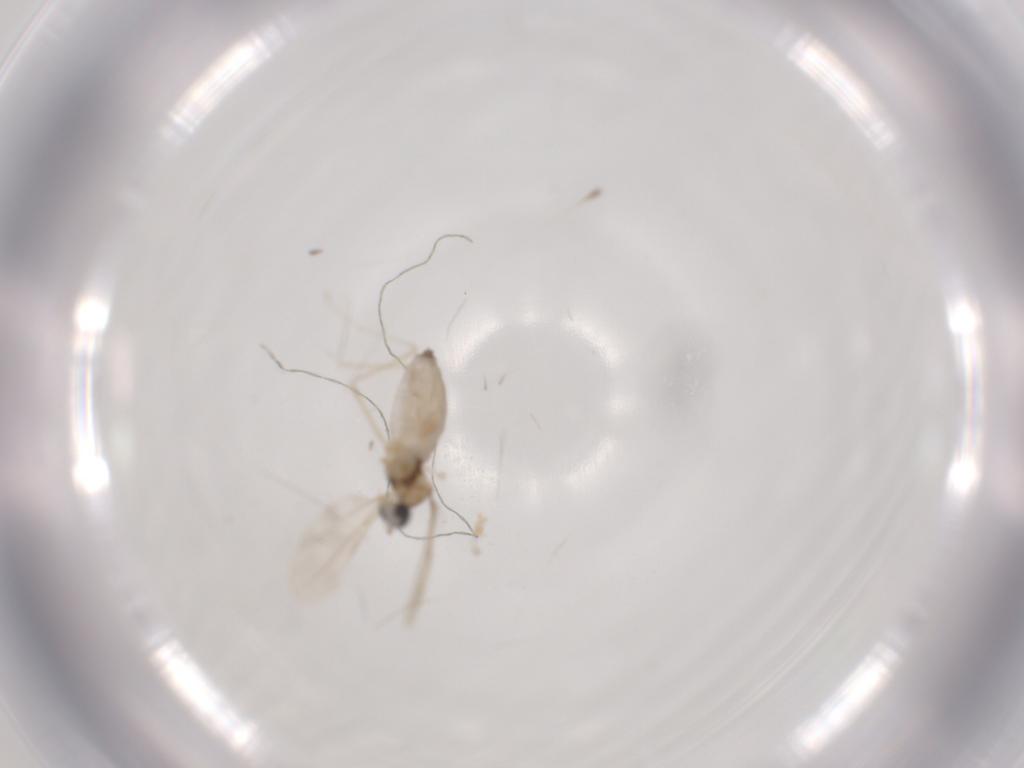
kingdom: Animalia
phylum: Arthropoda
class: Insecta
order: Diptera
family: Cecidomyiidae
